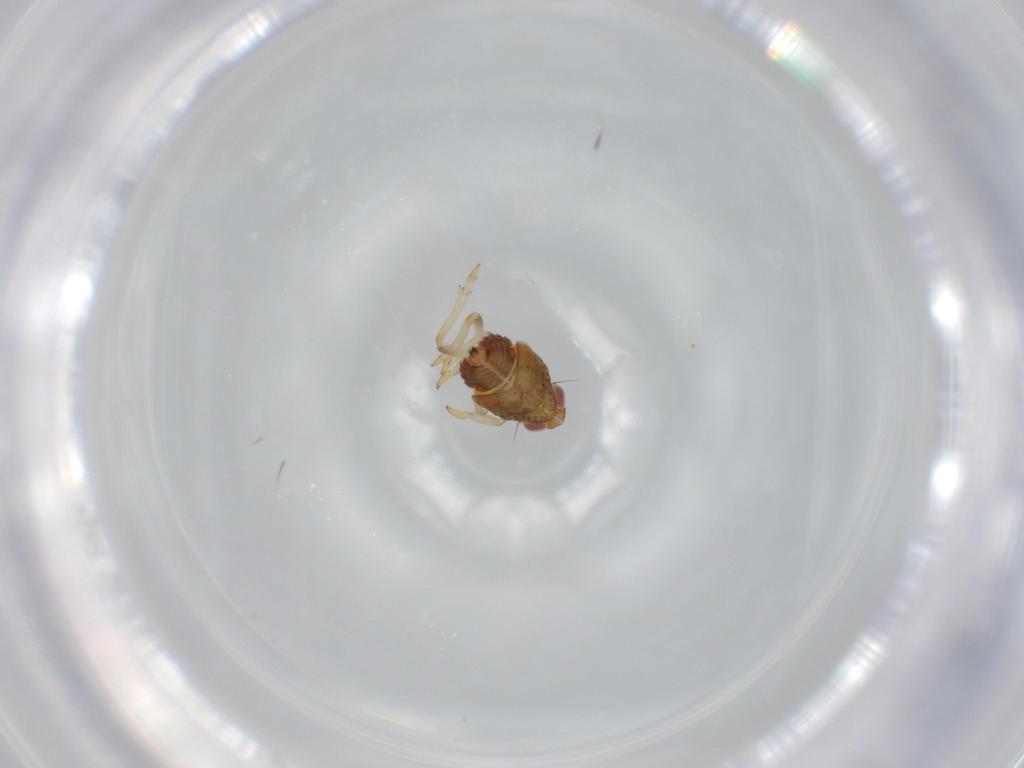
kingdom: Animalia
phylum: Arthropoda
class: Insecta
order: Hemiptera
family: Issidae
